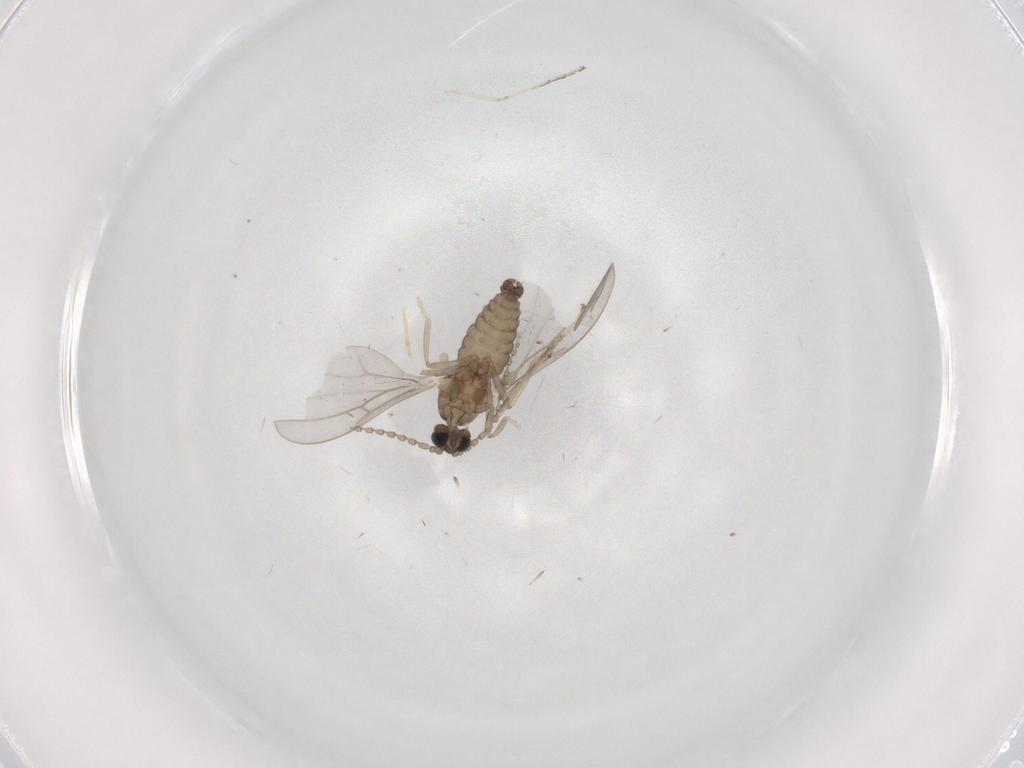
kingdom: Animalia
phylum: Arthropoda
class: Insecta
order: Diptera
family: Cecidomyiidae
